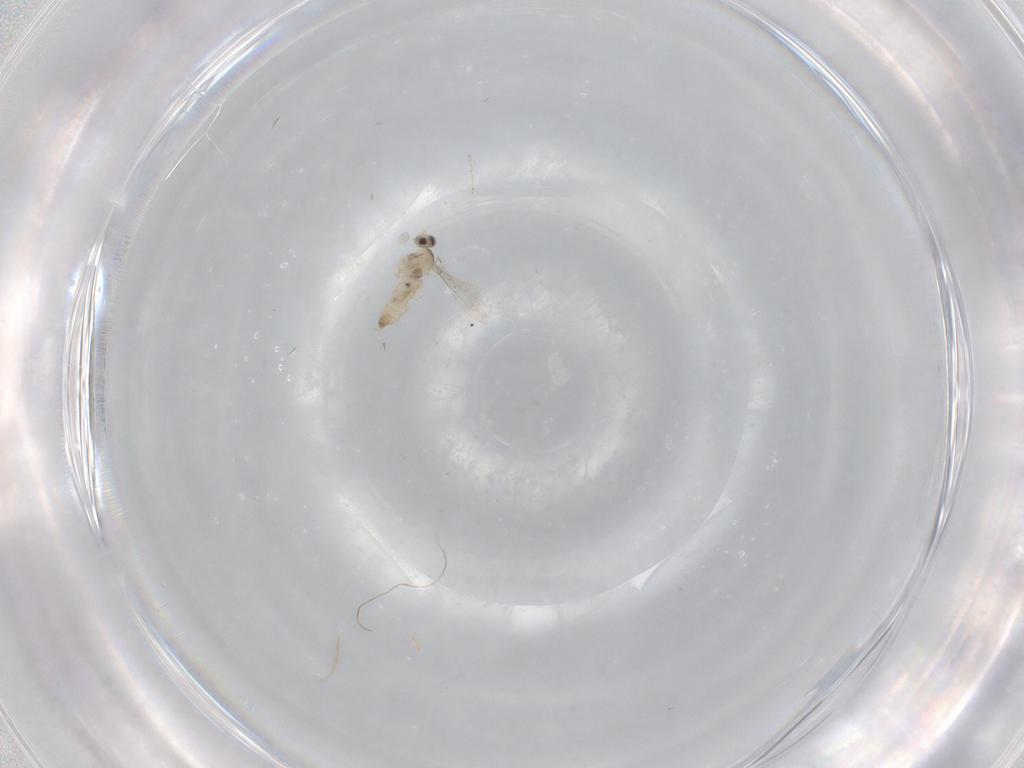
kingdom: Animalia
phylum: Arthropoda
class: Insecta
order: Diptera
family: Cecidomyiidae
